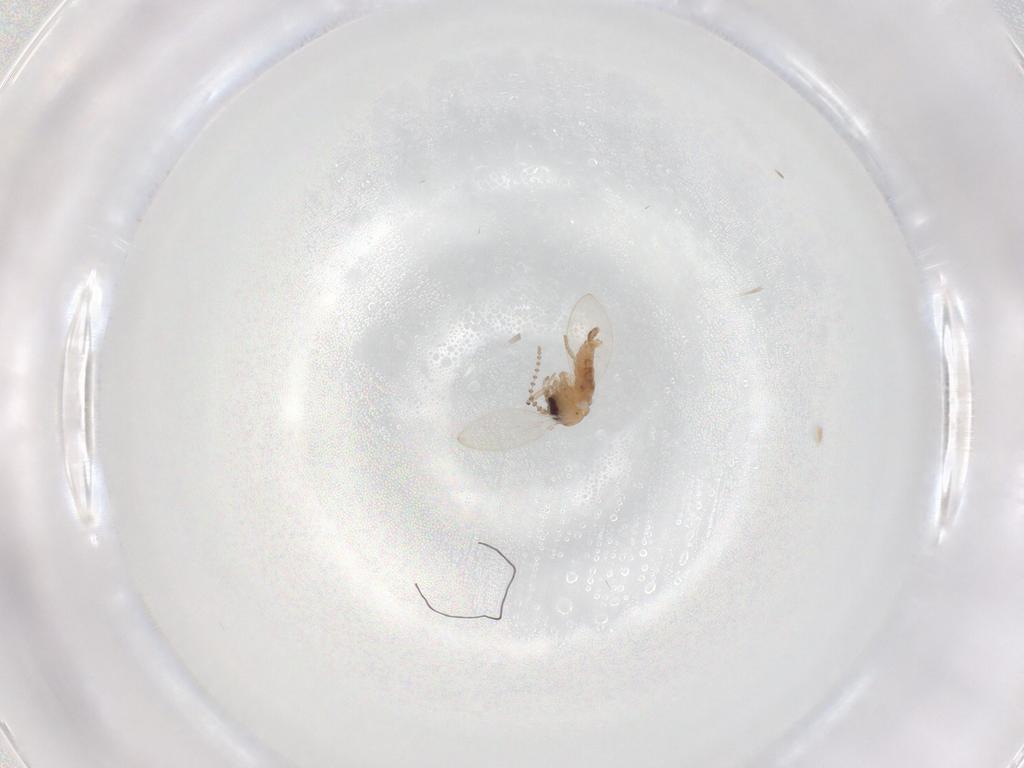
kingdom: Animalia
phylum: Arthropoda
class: Insecta
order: Diptera
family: Psychodidae
